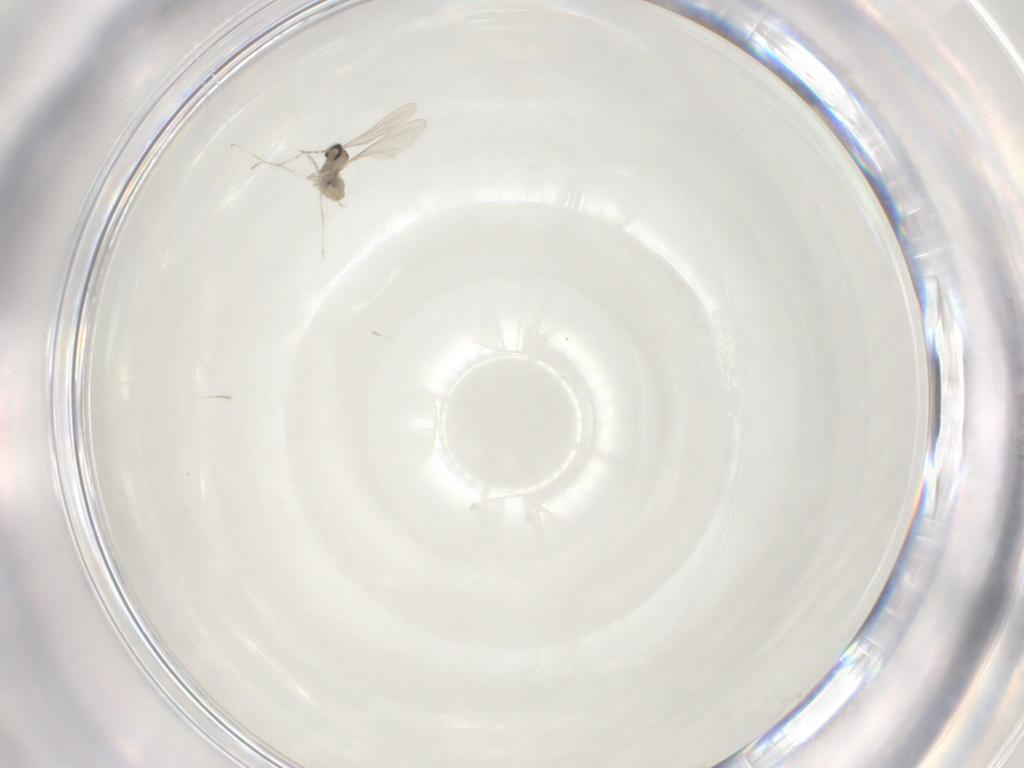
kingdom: Animalia
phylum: Arthropoda
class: Insecta
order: Diptera
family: Cecidomyiidae
